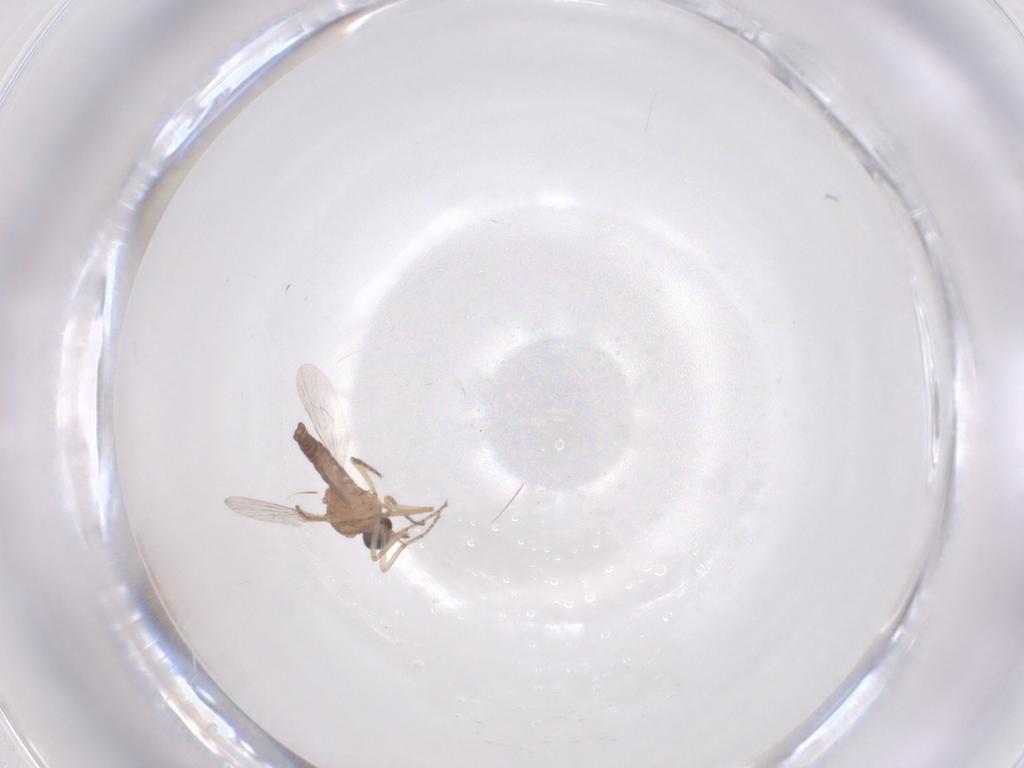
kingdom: Animalia
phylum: Arthropoda
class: Insecta
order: Diptera
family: Ceratopogonidae
